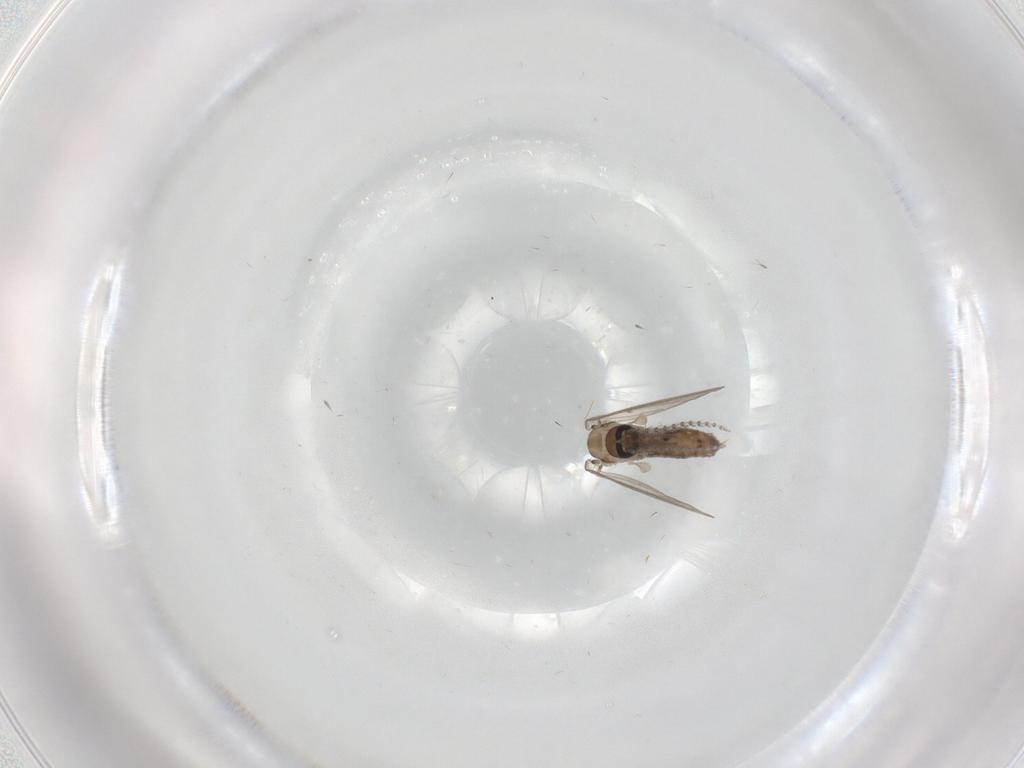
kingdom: Animalia
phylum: Arthropoda
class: Insecta
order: Diptera
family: Psychodidae
